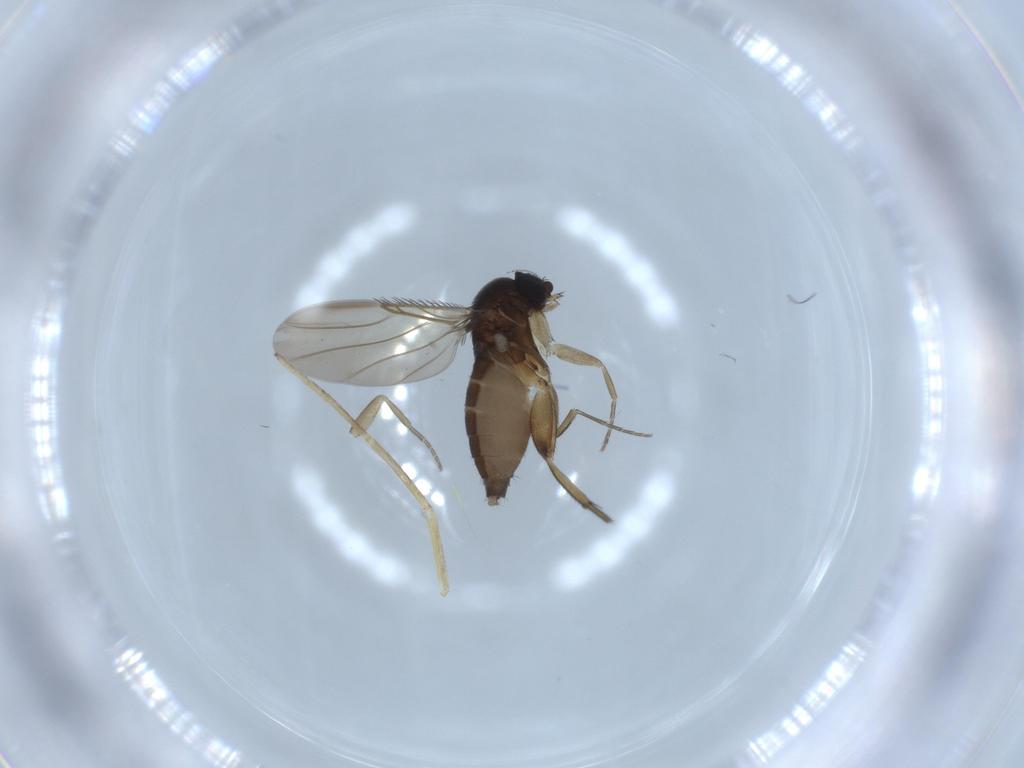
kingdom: Animalia
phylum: Arthropoda
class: Insecta
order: Diptera
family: Phoridae
